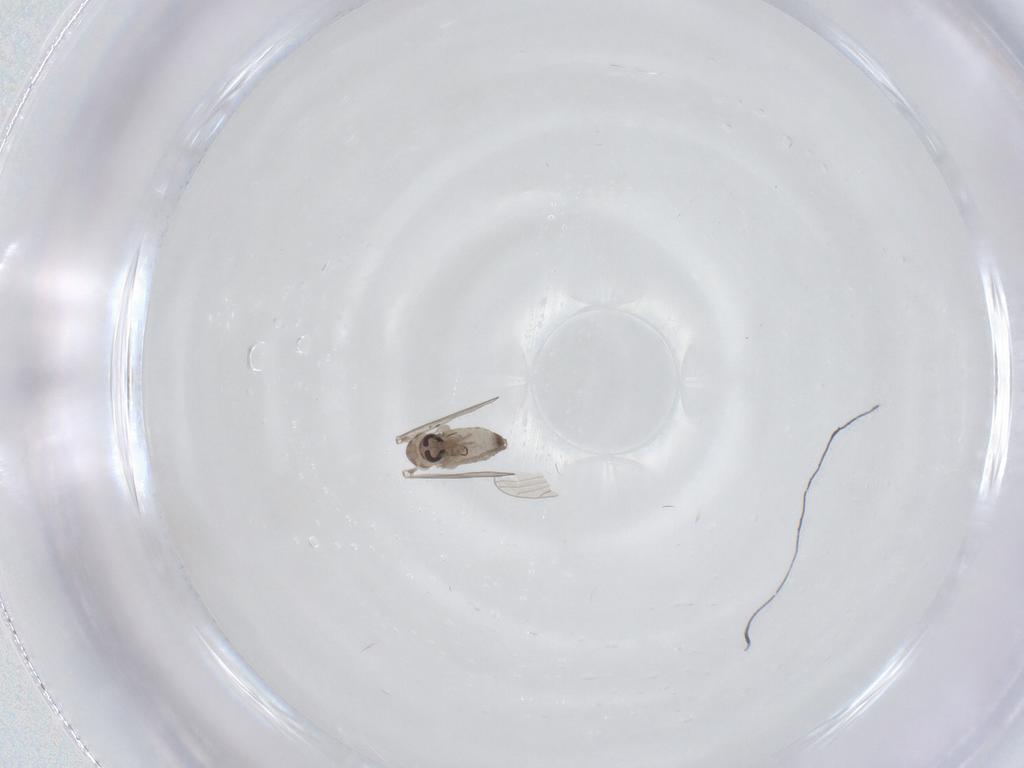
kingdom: Animalia
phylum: Arthropoda
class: Insecta
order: Diptera
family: Psychodidae
